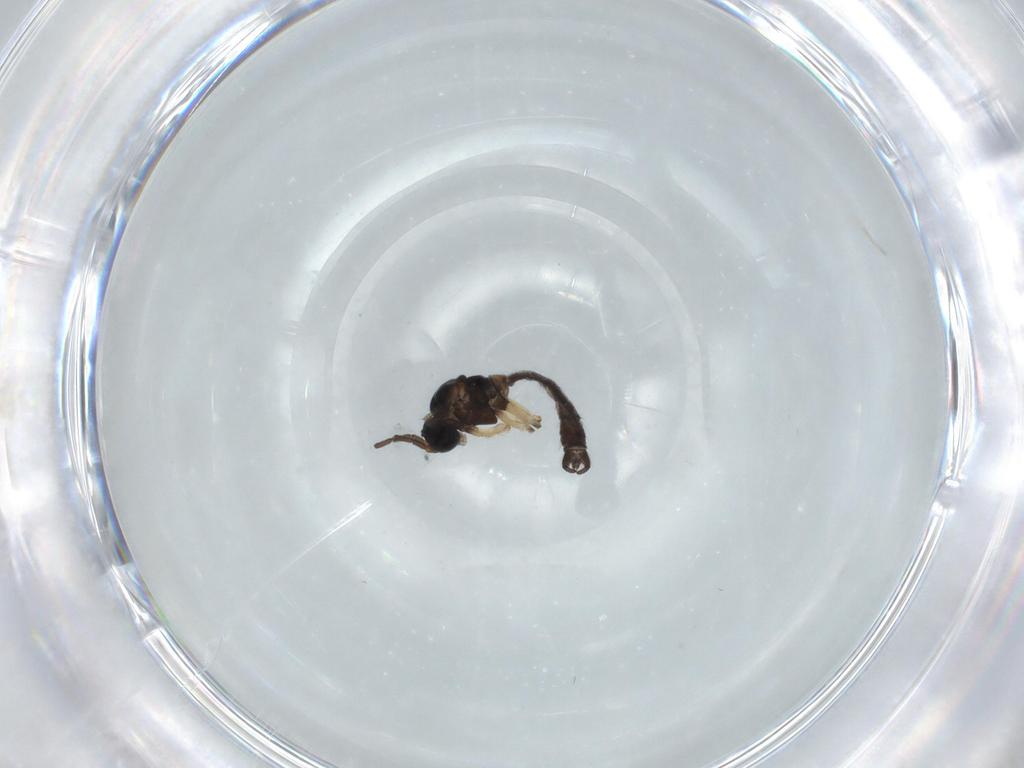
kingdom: Animalia
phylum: Arthropoda
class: Insecta
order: Diptera
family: Sciaridae
